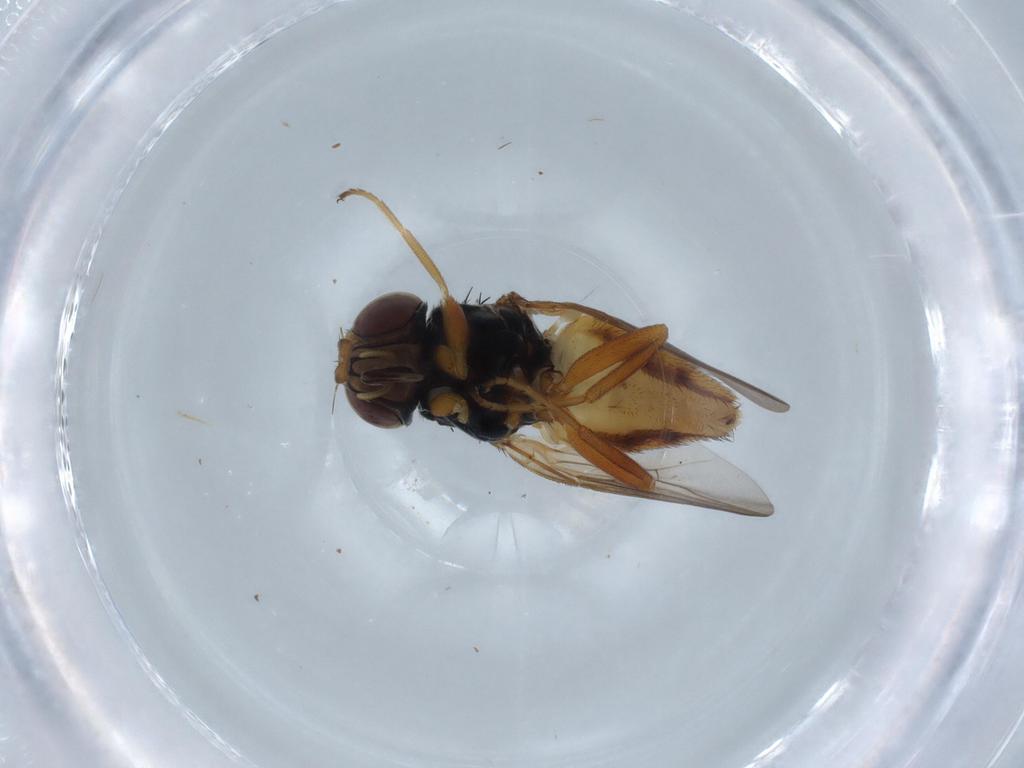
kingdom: Animalia
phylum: Arthropoda
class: Insecta
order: Diptera
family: Chloropidae
